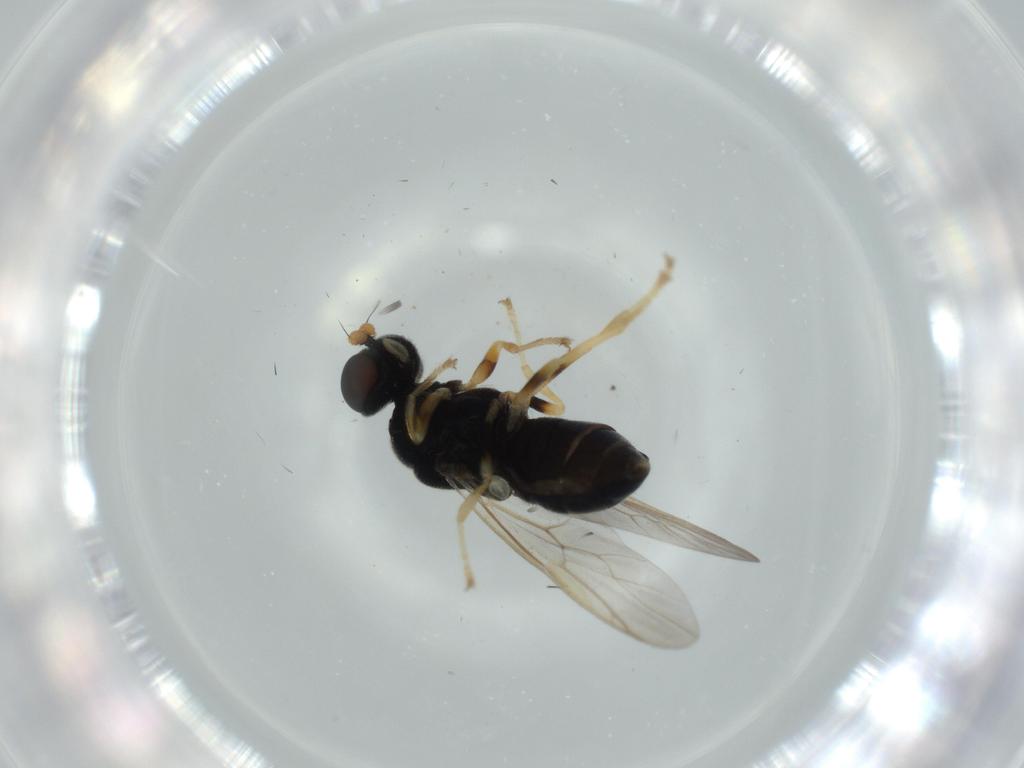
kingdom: Animalia
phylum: Arthropoda
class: Insecta
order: Diptera
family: Stratiomyidae
